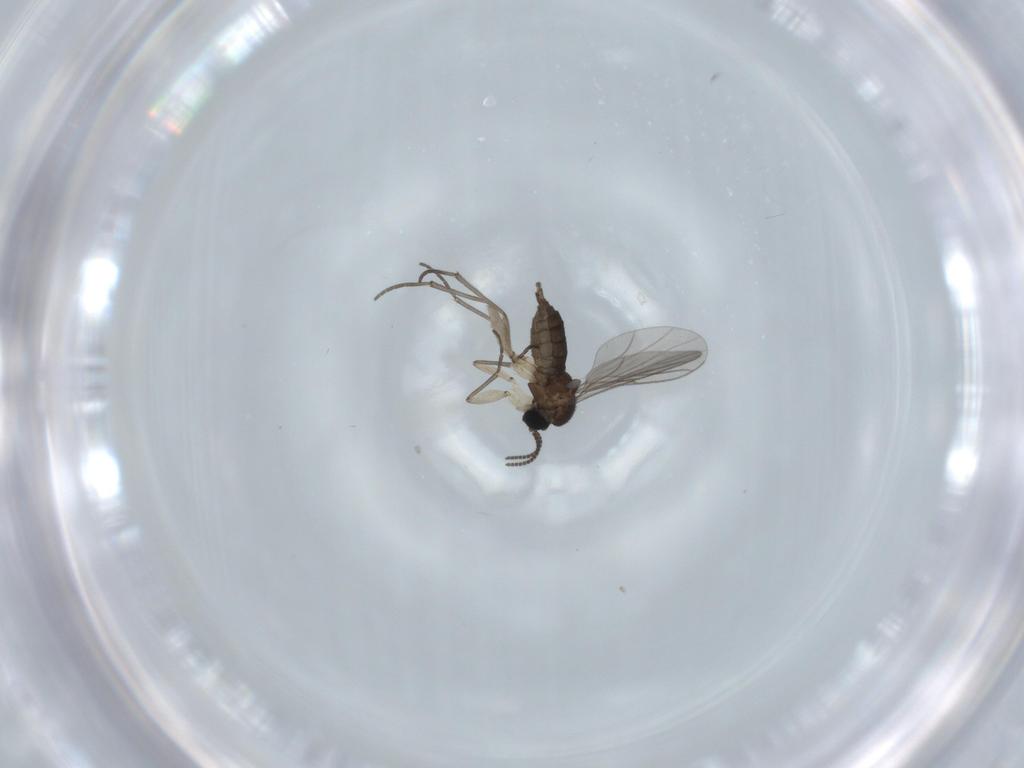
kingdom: Animalia
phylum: Arthropoda
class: Insecta
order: Diptera
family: Sciaridae
